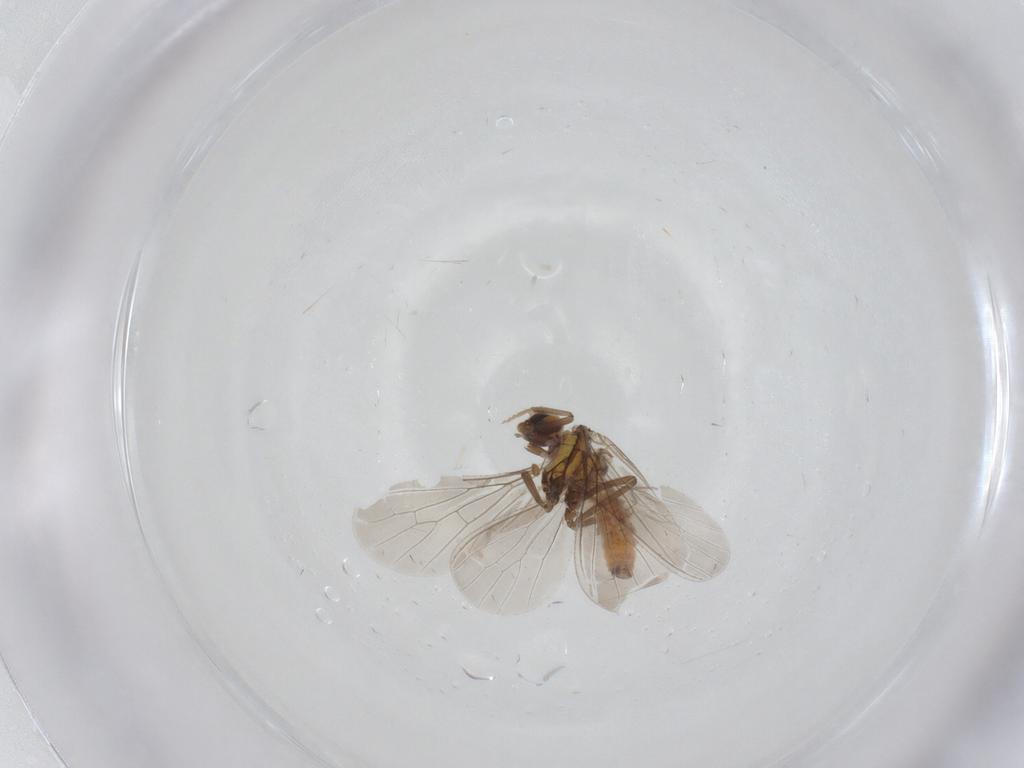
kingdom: Animalia
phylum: Arthropoda
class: Insecta
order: Neuroptera
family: Coniopterygidae
